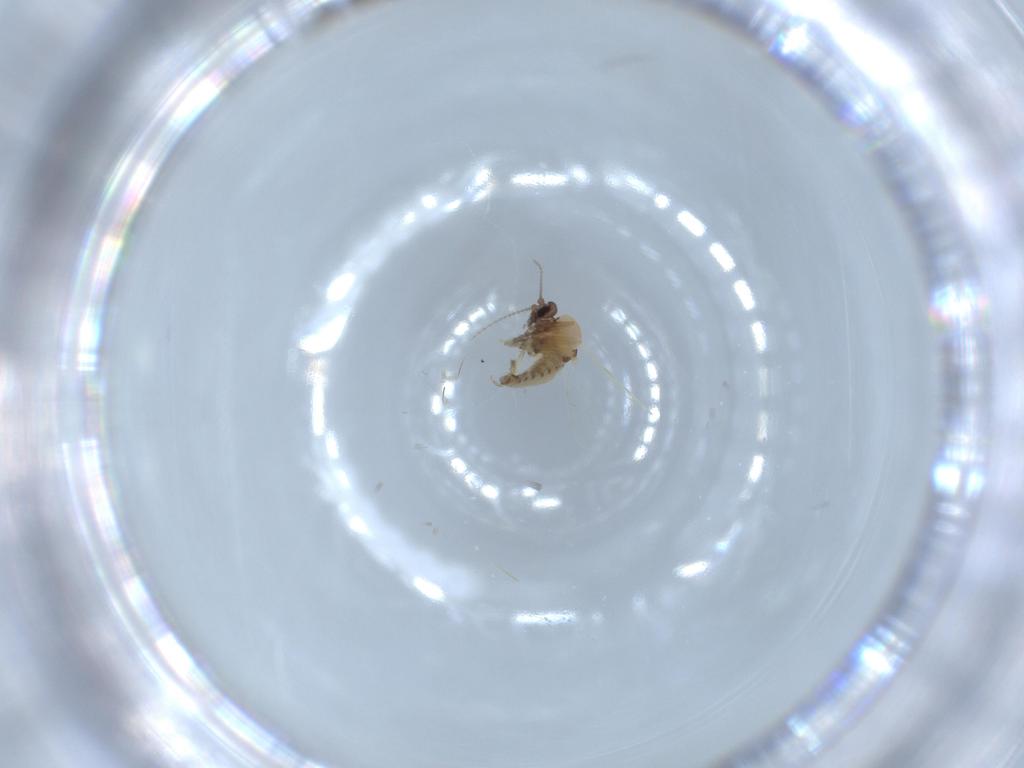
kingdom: Animalia
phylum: Arthropoda
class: Insecta
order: Diptera
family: Ceratopogonidae
